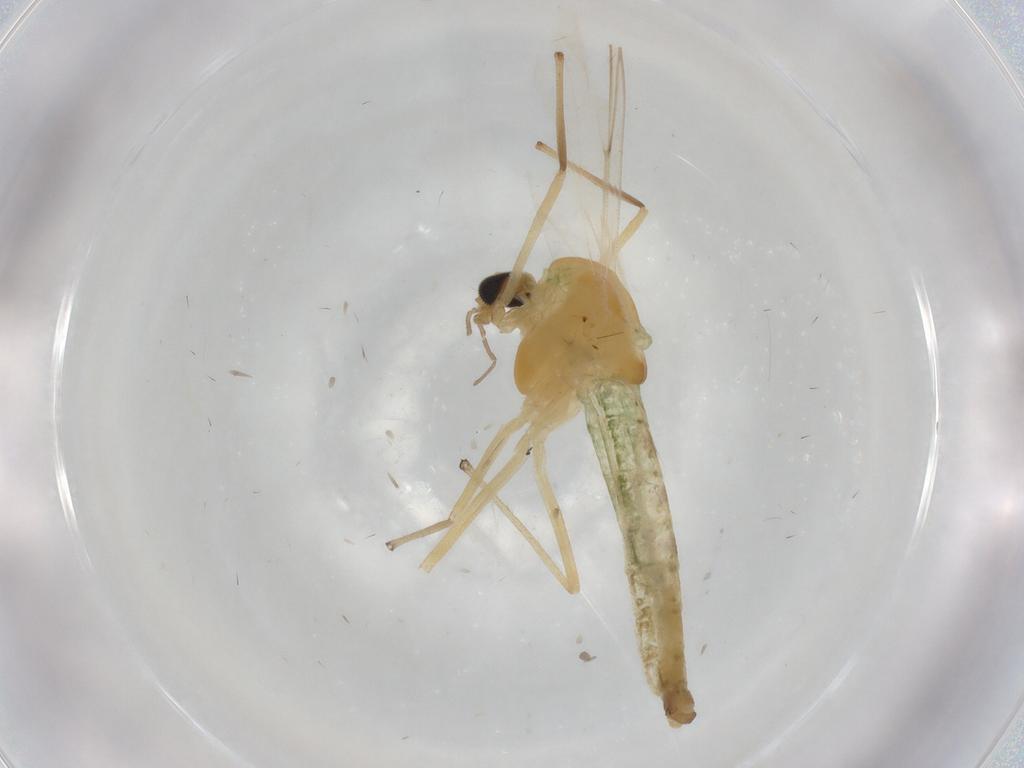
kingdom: Animalia
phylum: Arthropoda
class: Insecta
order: Diptera
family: Chironomidae
